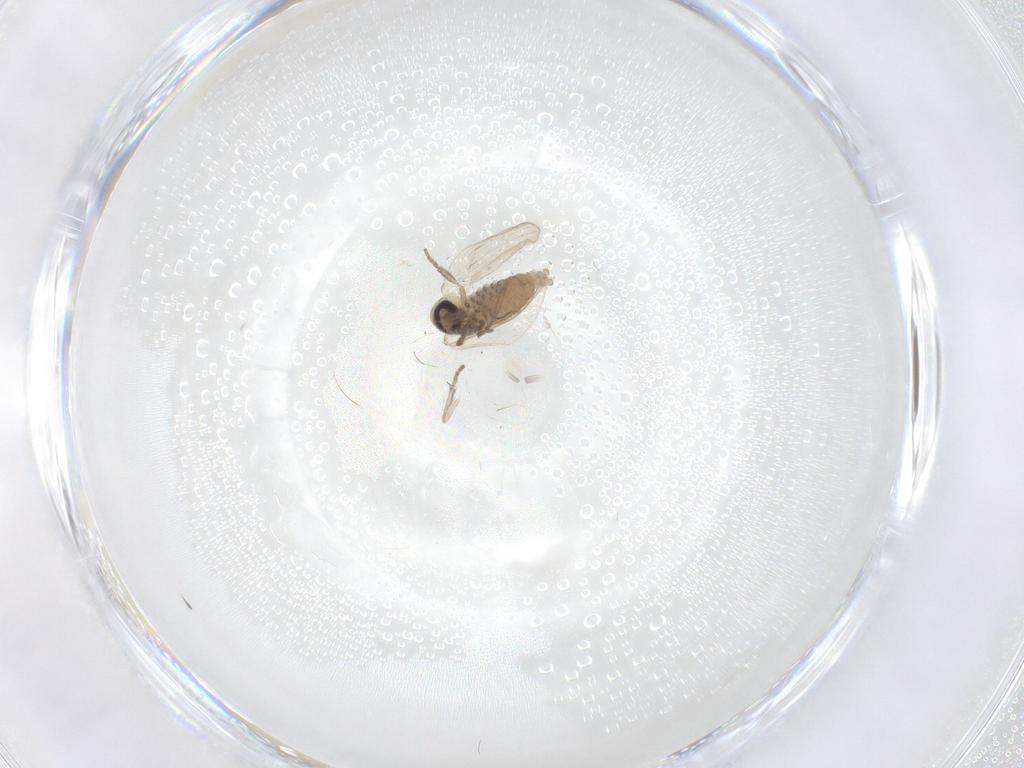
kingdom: Animalia
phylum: Arthropoda
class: Insecta
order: Diptera
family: Psychodidae
